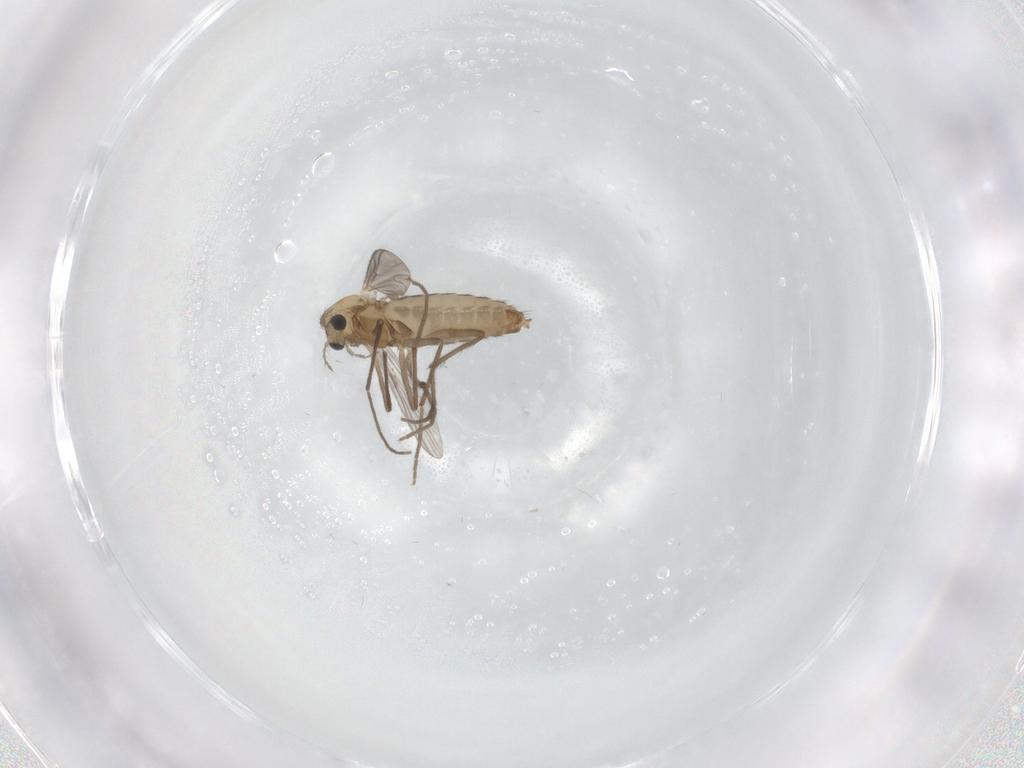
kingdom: Animalia
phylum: Arthropoda
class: Insecta
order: Diptera
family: Chironomidae
